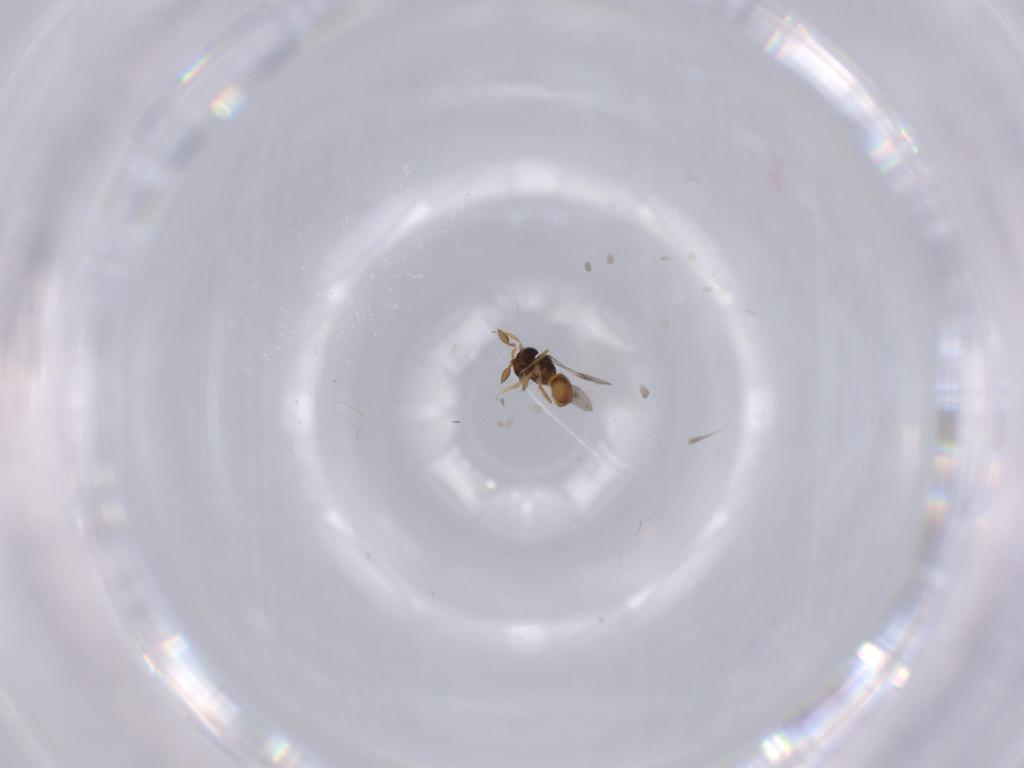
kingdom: Animalia
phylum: Arthropoda
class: Insecta
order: Hymenoptera
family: Scelionidae
